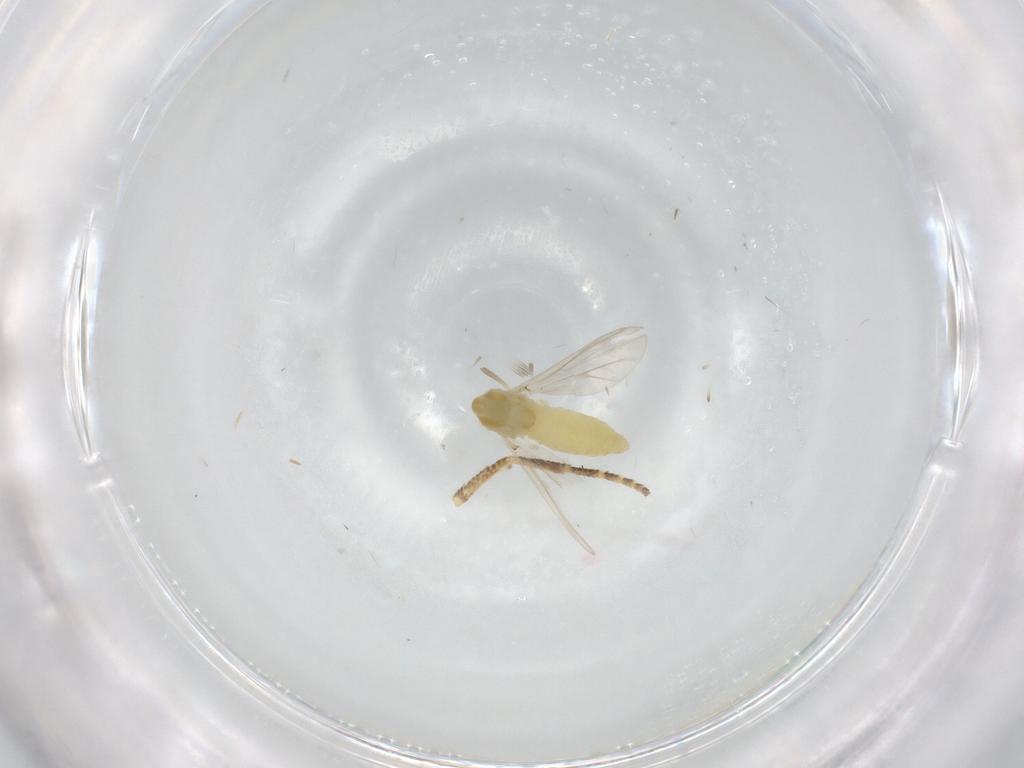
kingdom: Animalia
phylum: Arthropoda
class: Insecta
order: Diptera
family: Chironomidae
